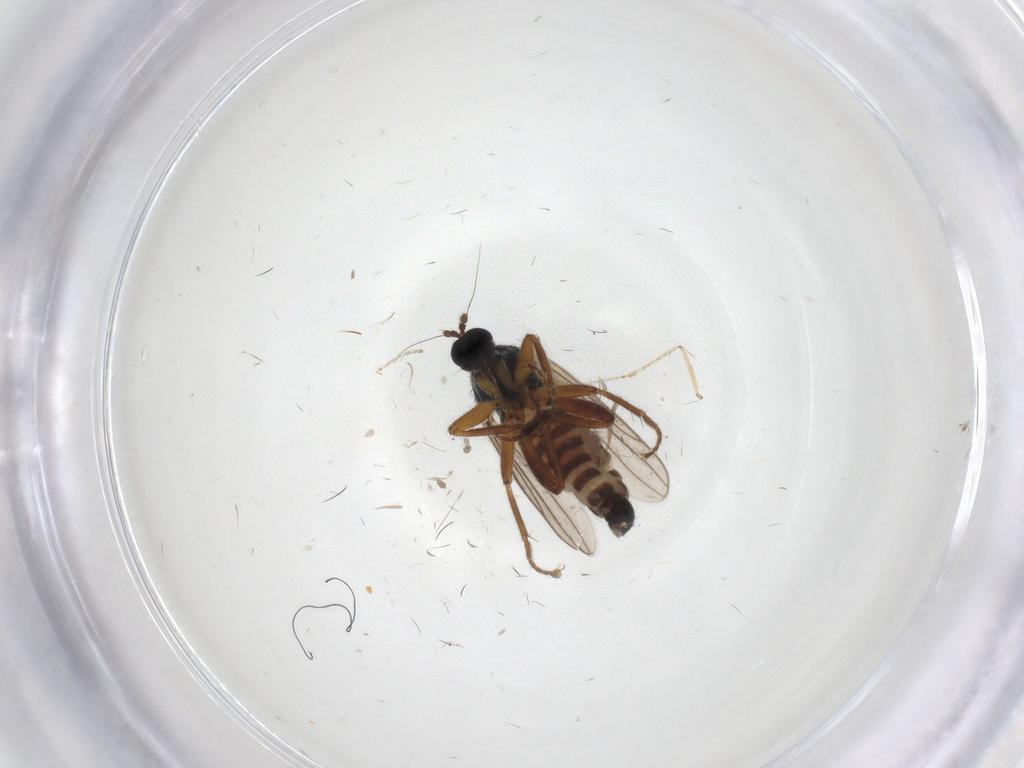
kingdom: Animalia
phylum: Arthropoda
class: Insecta
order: Diptera
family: Hybotidae
